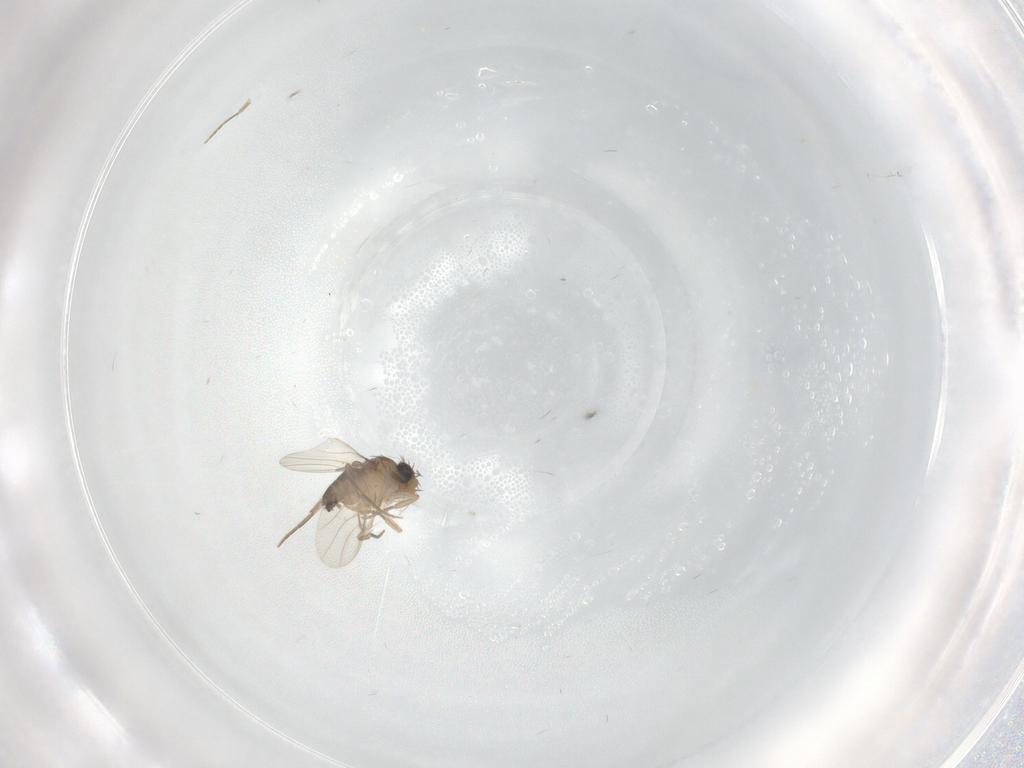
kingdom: Animalia
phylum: Arthropoda
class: Insecta
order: Diptera
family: Phoridae
